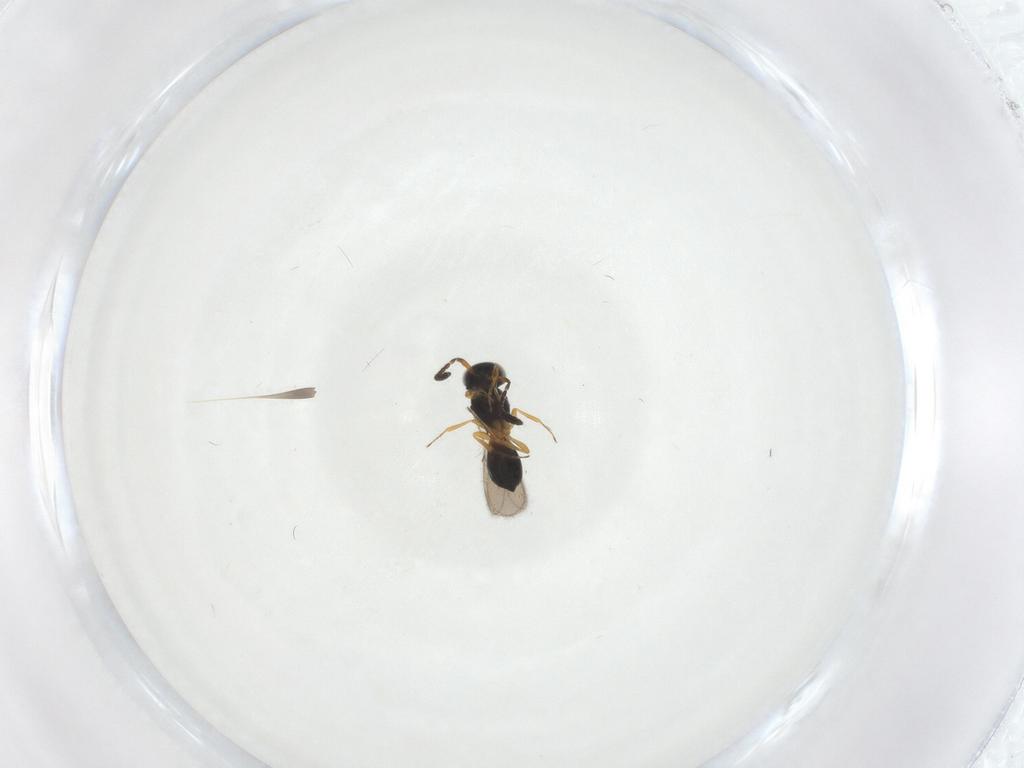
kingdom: Animalia
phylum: Arthropoda
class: Insecta
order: Hymenoptera
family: Scelionidae
